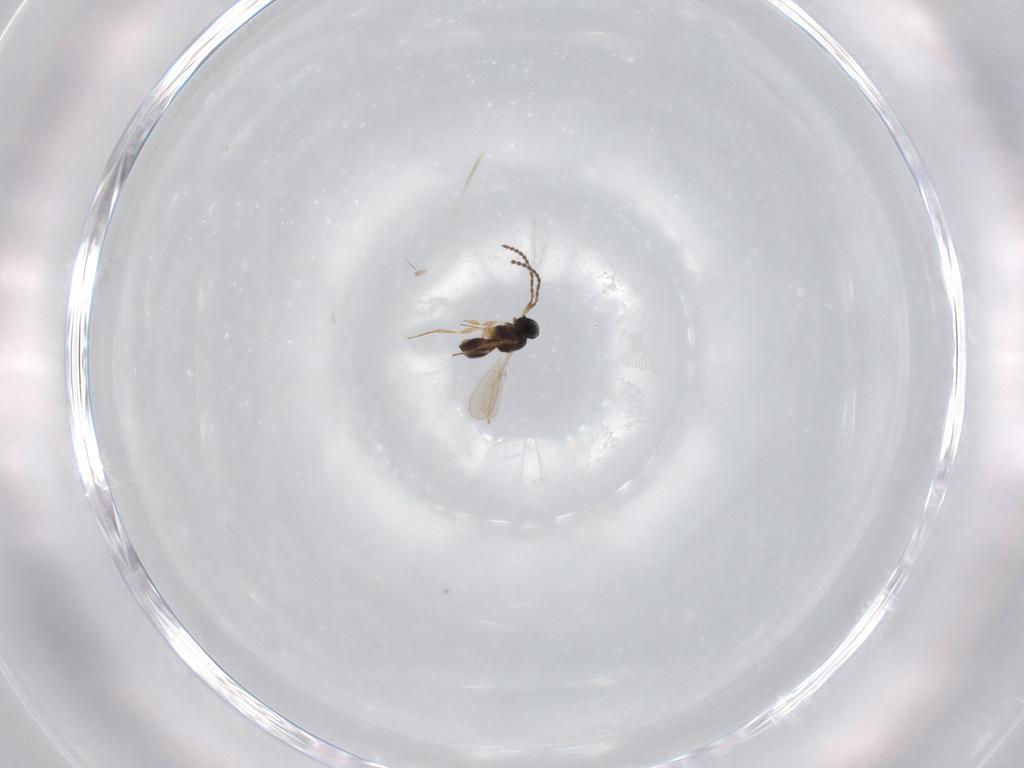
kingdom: Animalia
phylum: Arthropoda
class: Insecta
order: Hymenoptera
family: Scelionidae
